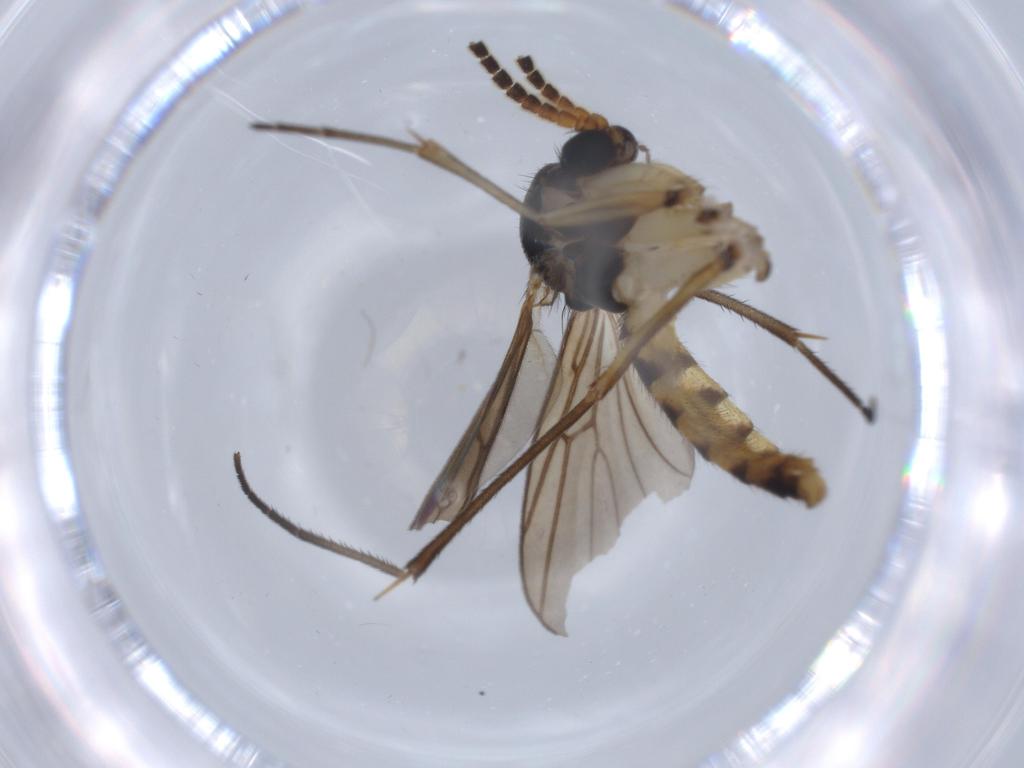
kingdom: Animalia
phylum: Arthropoda
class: Insecta
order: Diptera
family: Cecidomyiidae
